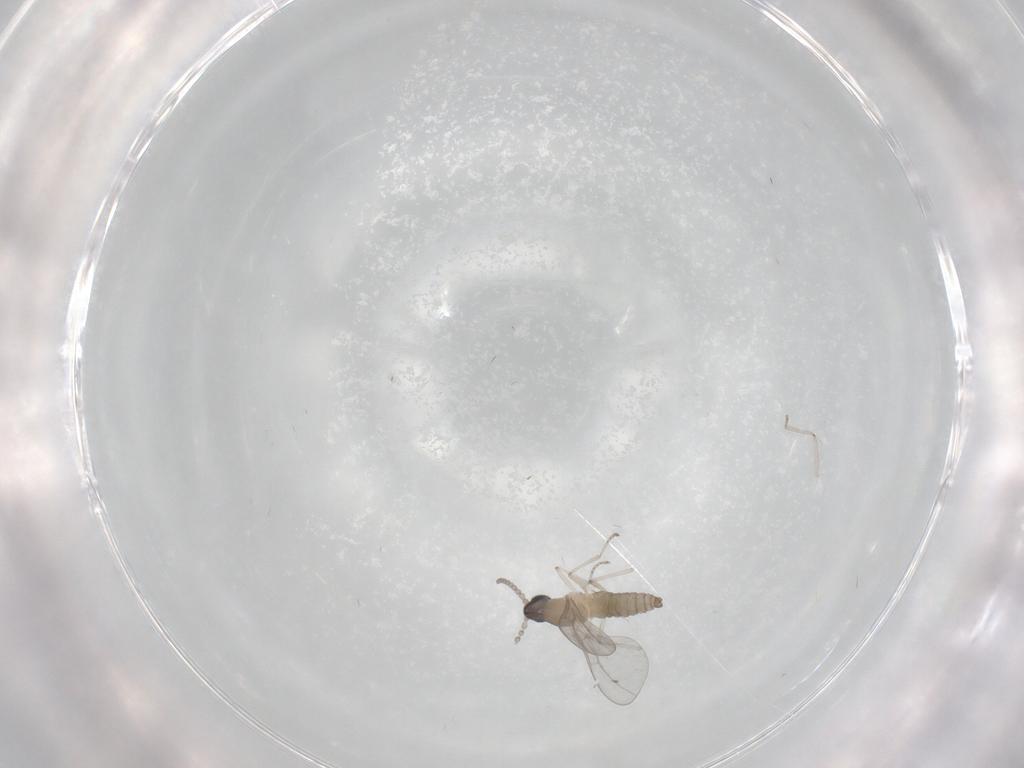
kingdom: Animalia
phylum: Arthropoda
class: Insecta
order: Diptera
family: Cecidomyiidae
